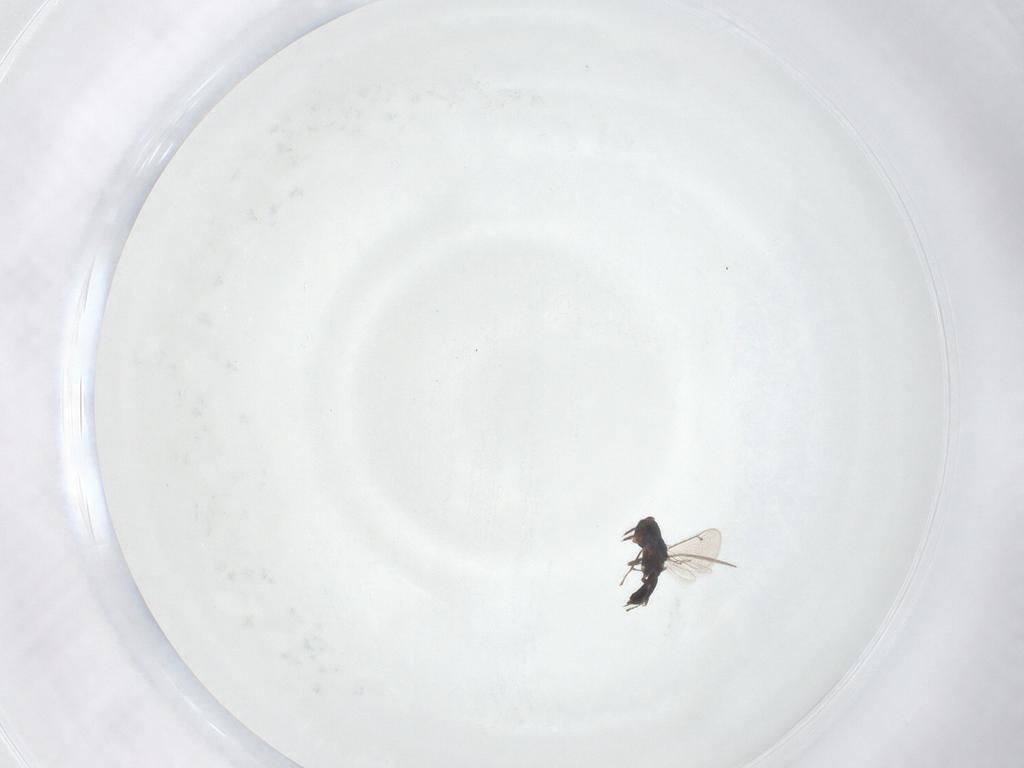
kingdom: Animalia
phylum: Arthropoda
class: Insecta
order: Hymenoptera
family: Eulophidae
